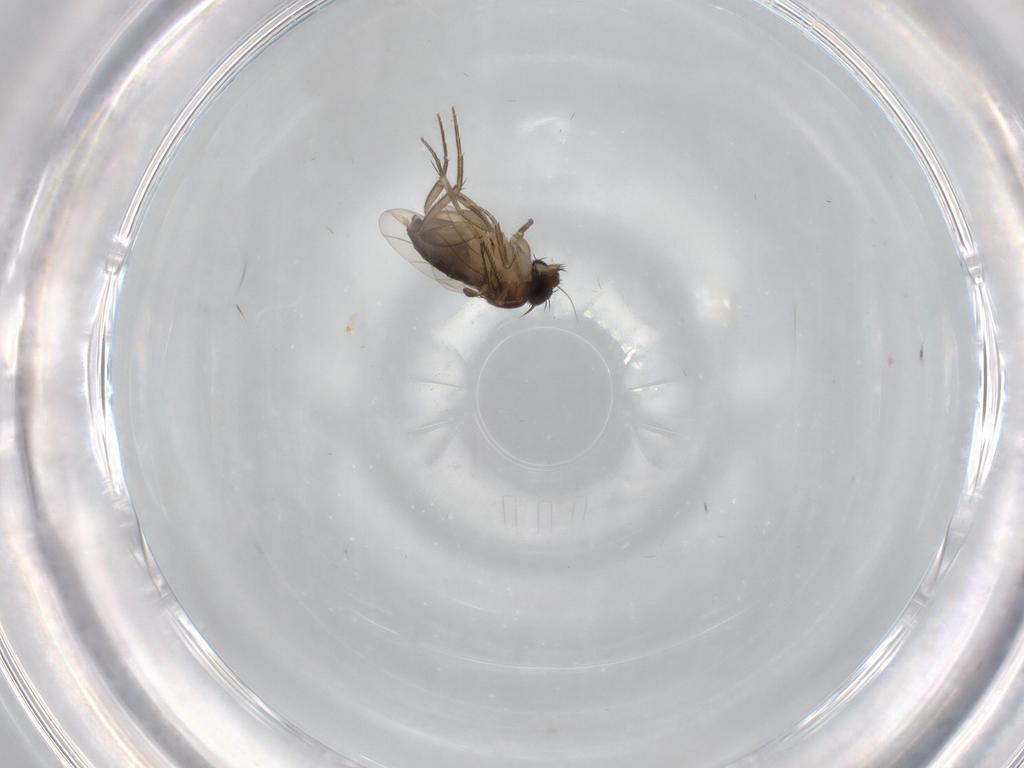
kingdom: Animalia
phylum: Arthropoda
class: Insecta
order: Diptera
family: Phoridae
